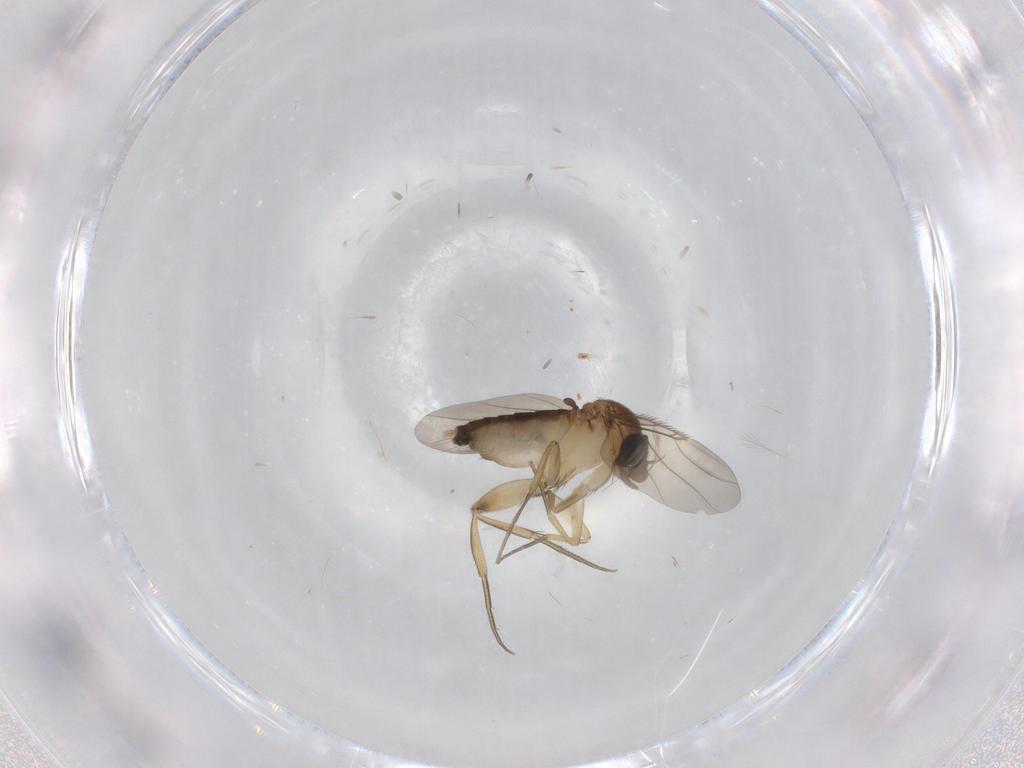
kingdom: Animalia
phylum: Arthropoda
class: Insecta
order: Diptera
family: Phoridae
